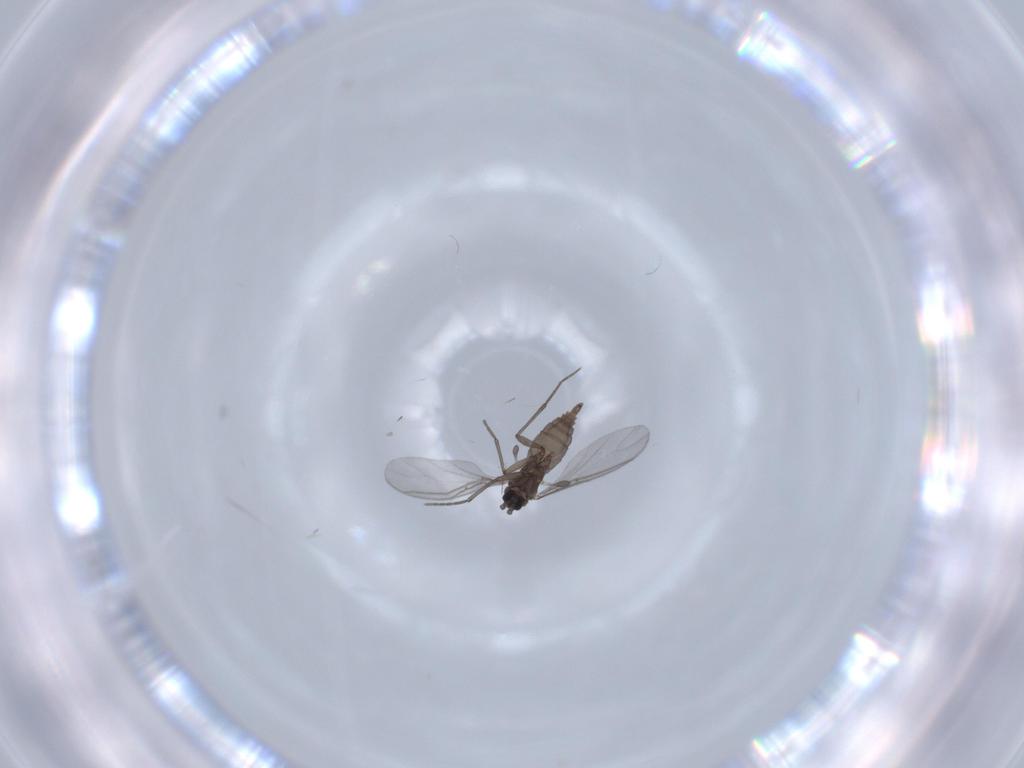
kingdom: Animalia
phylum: Arthropoda
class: Insecta
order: Diptera
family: Sciaridae
